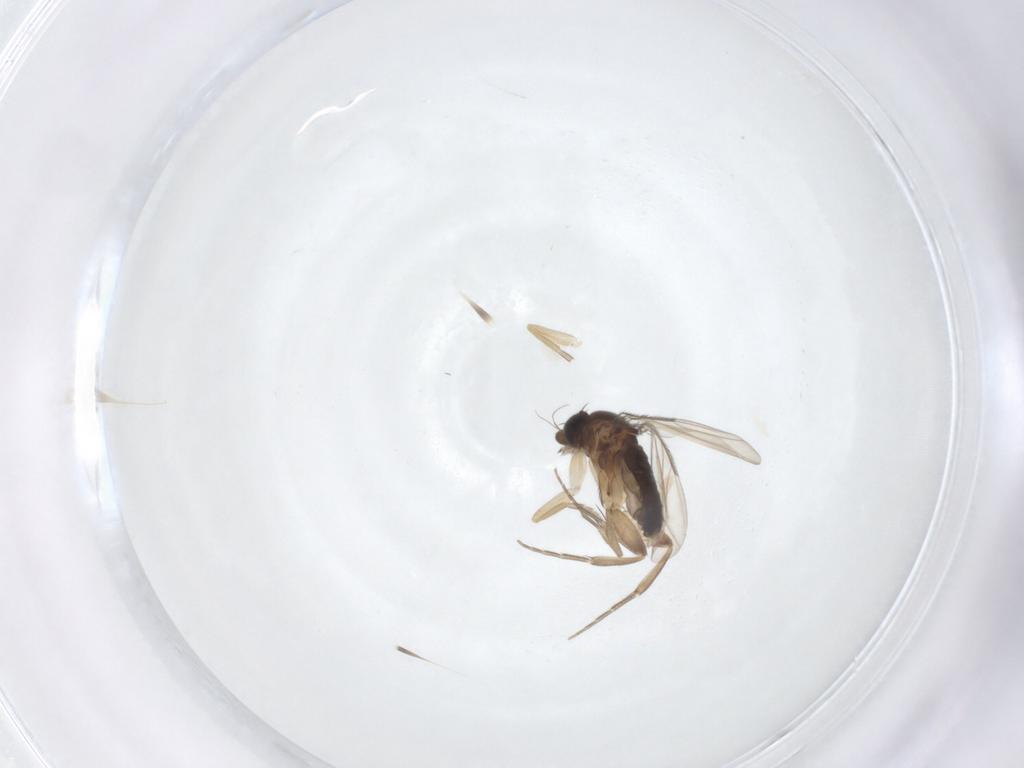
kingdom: Animalia
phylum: Arthropoda
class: Insecta
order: Diptera
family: Phoridae
